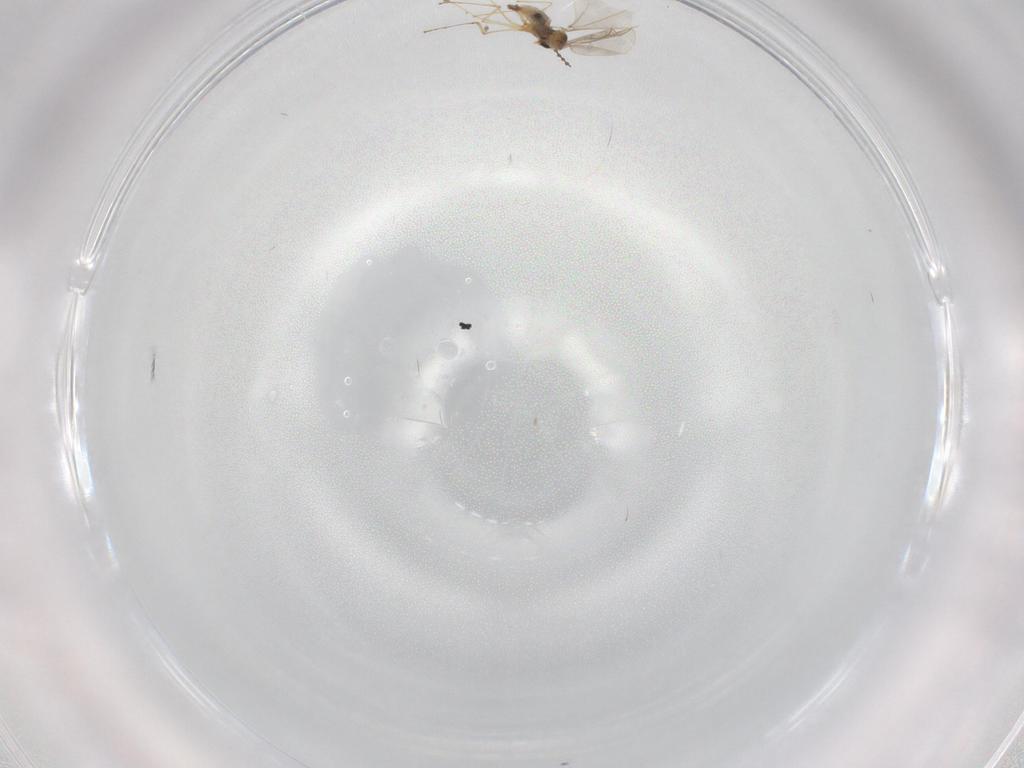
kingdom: Animalia
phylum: Arthropoda
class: Insecta
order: Diptera
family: Cecidomyiidae
